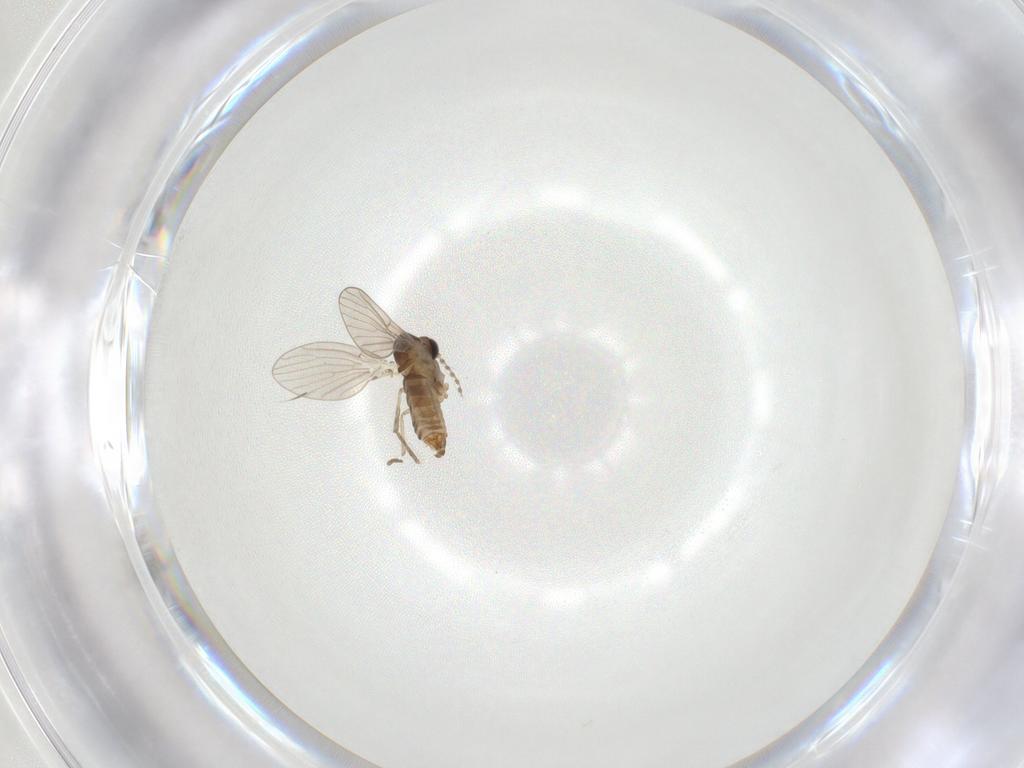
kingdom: Animalia
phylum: Arthropoda
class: Insecta
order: Diptera
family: Psychodidae
